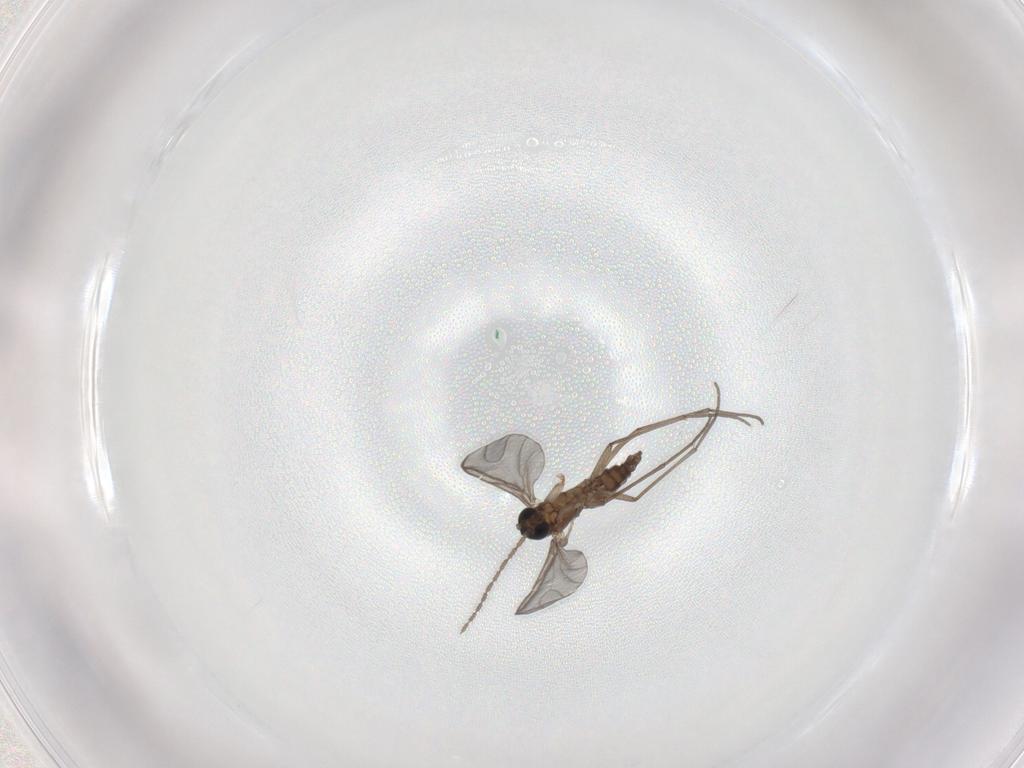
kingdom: Animalia
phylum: Arthropoda
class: Insecta
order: Diptera
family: Sciaridae
